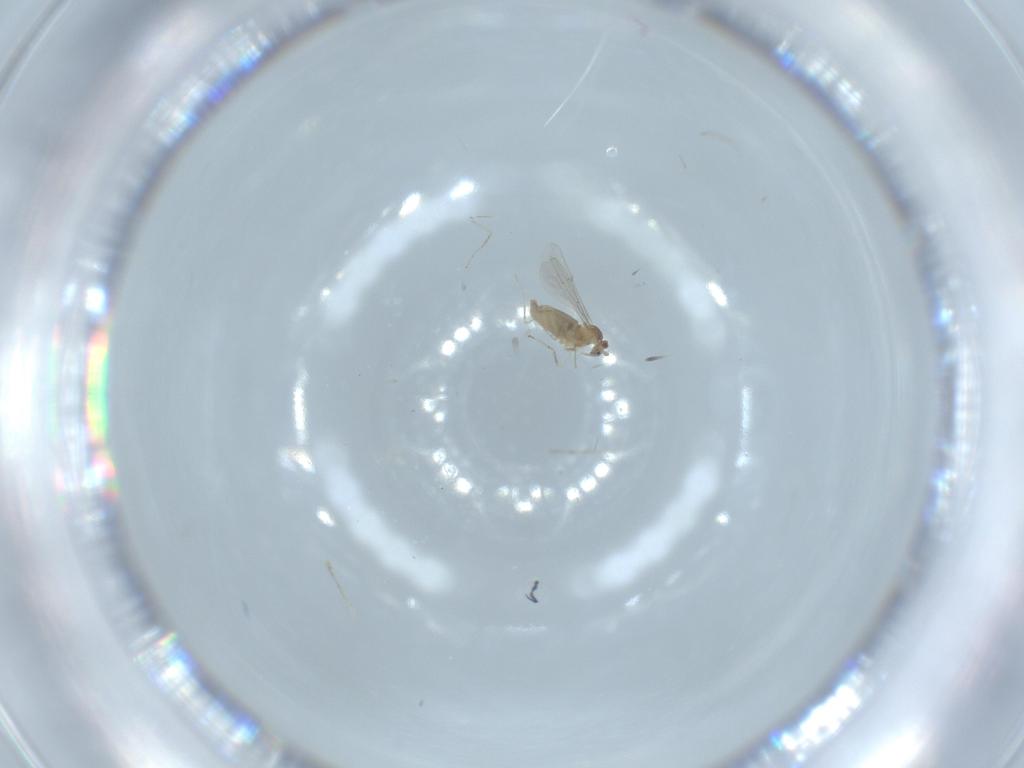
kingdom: Animalia
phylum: Arthropoda
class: Insecta
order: Diptera
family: Cecidomyiidae
